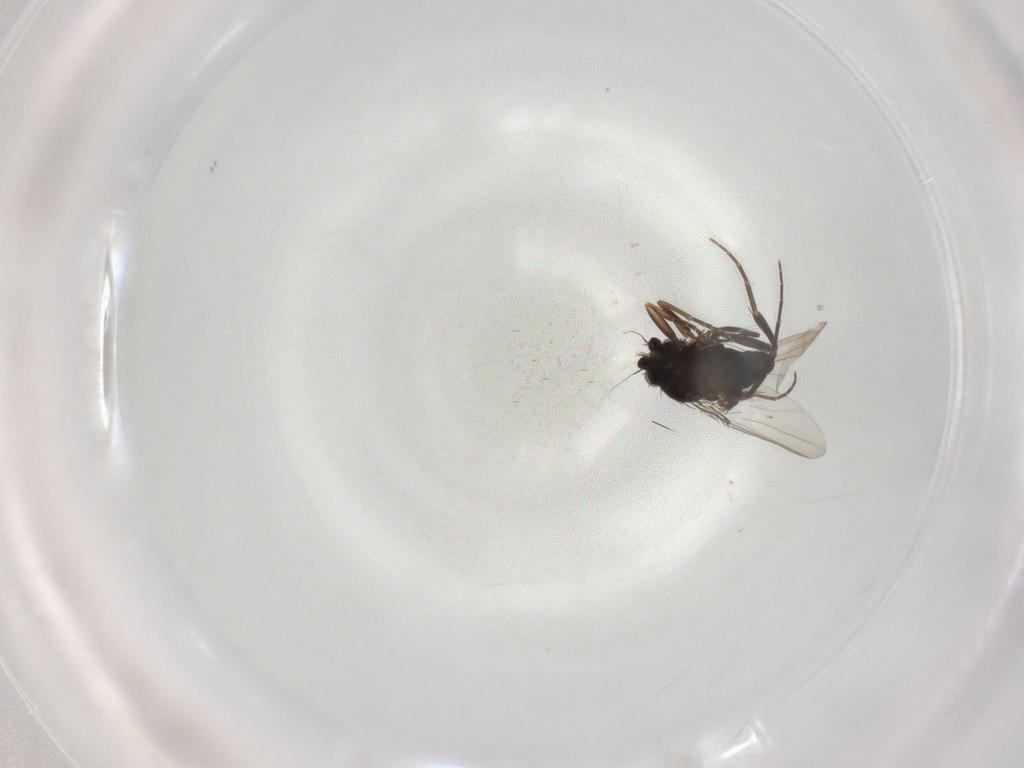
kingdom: Animalia
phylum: Arthropoda
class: Insecta
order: Diptera
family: Phoridae
